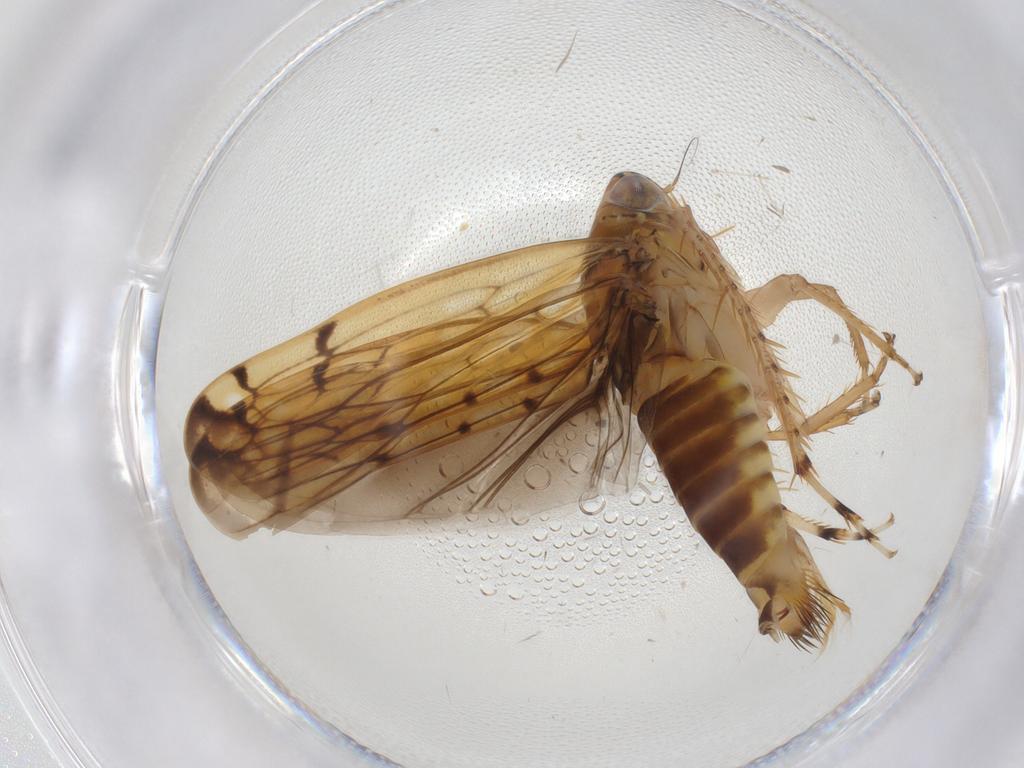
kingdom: Animalia
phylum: Arthropoda
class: Insecta
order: Hemiptera
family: Cicadellidae
